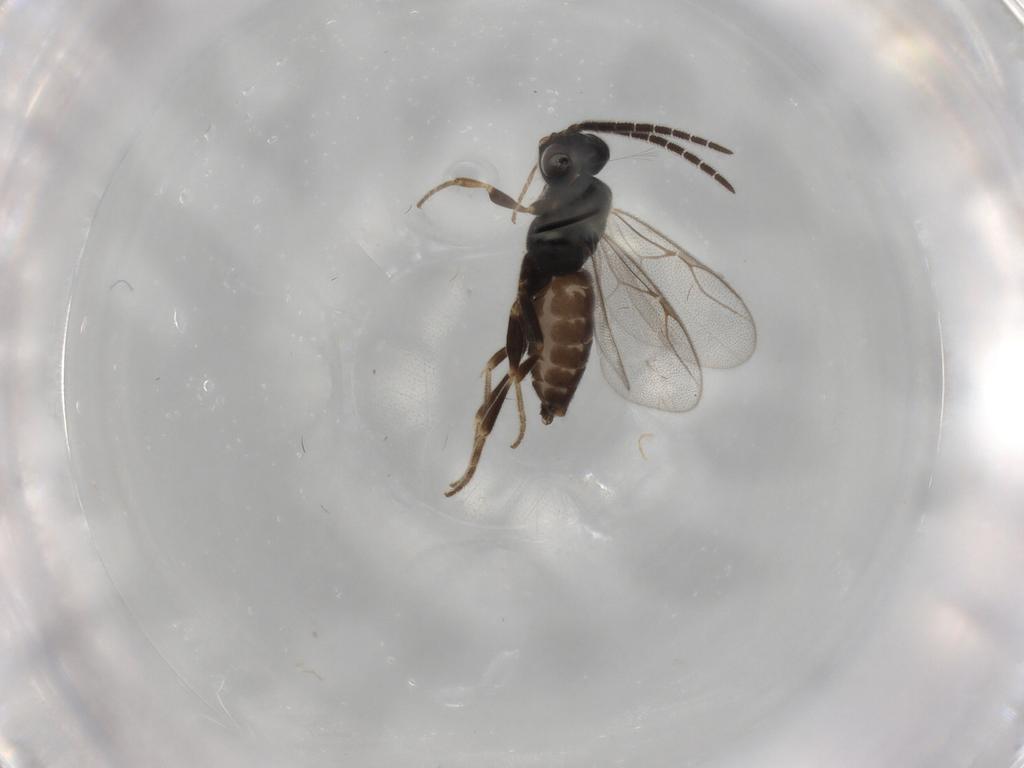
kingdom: Animalia
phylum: Arthropoda
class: Insecta
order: Hymenoptera
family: Dryinidae
